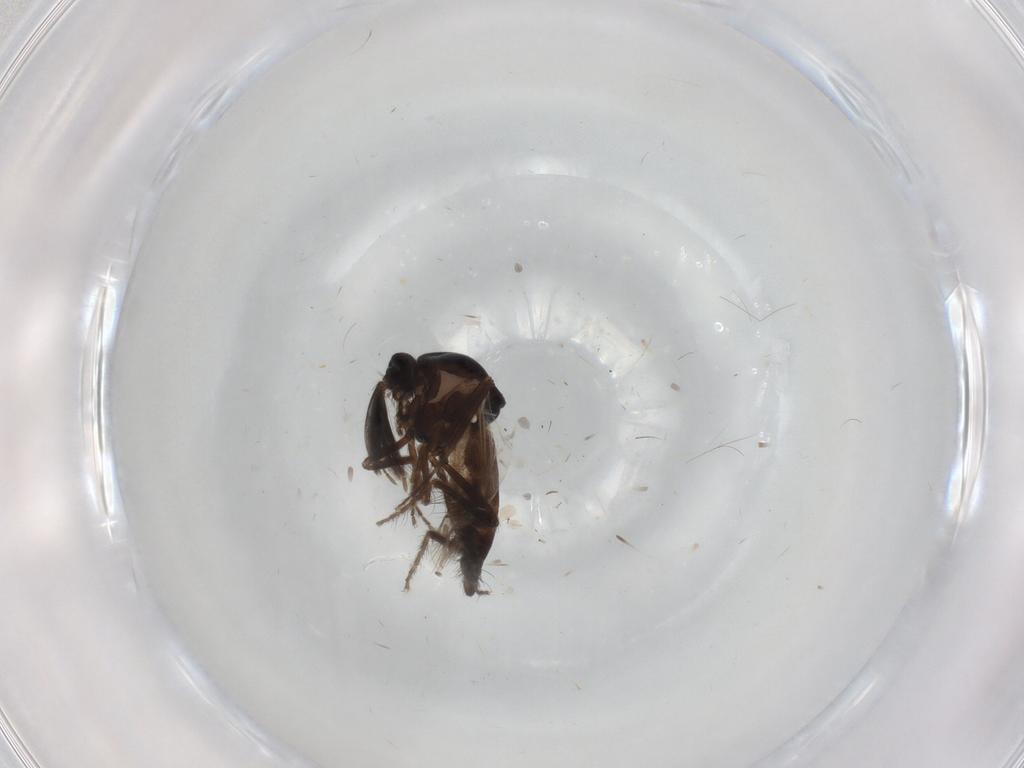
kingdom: Animalia
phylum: Arthropoda
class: Insecta
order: Diptera
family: Ceratopogonidae
